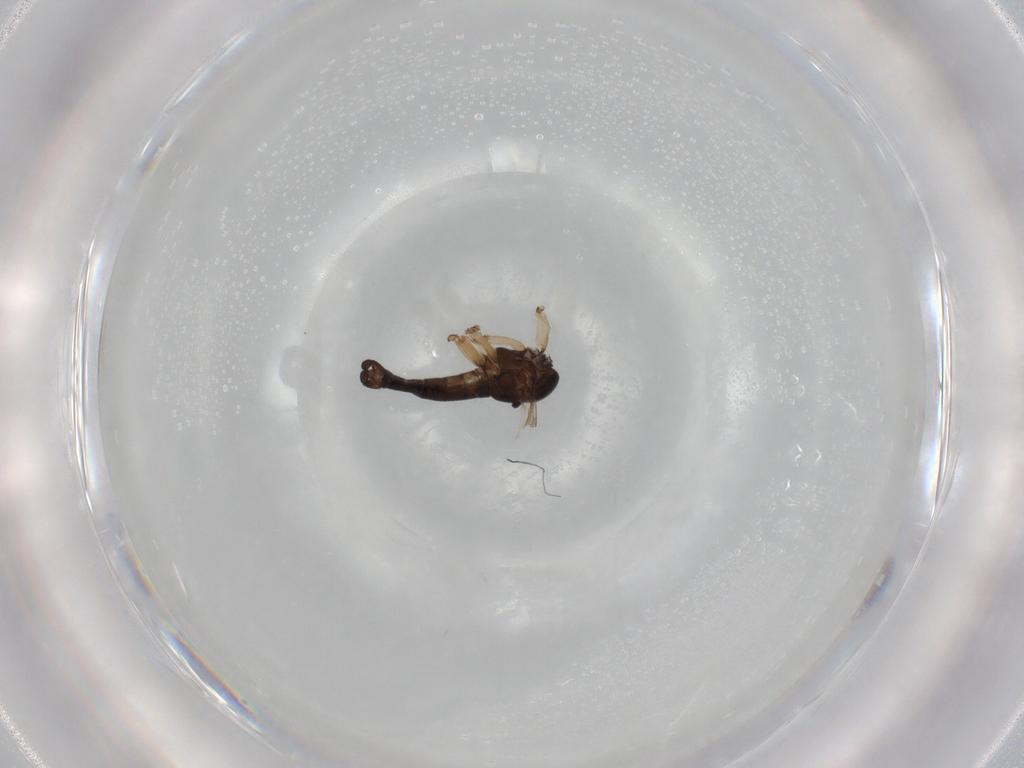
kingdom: Animalia
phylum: Arthropoda
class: Insecta
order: Diptera
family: Sciaridae
